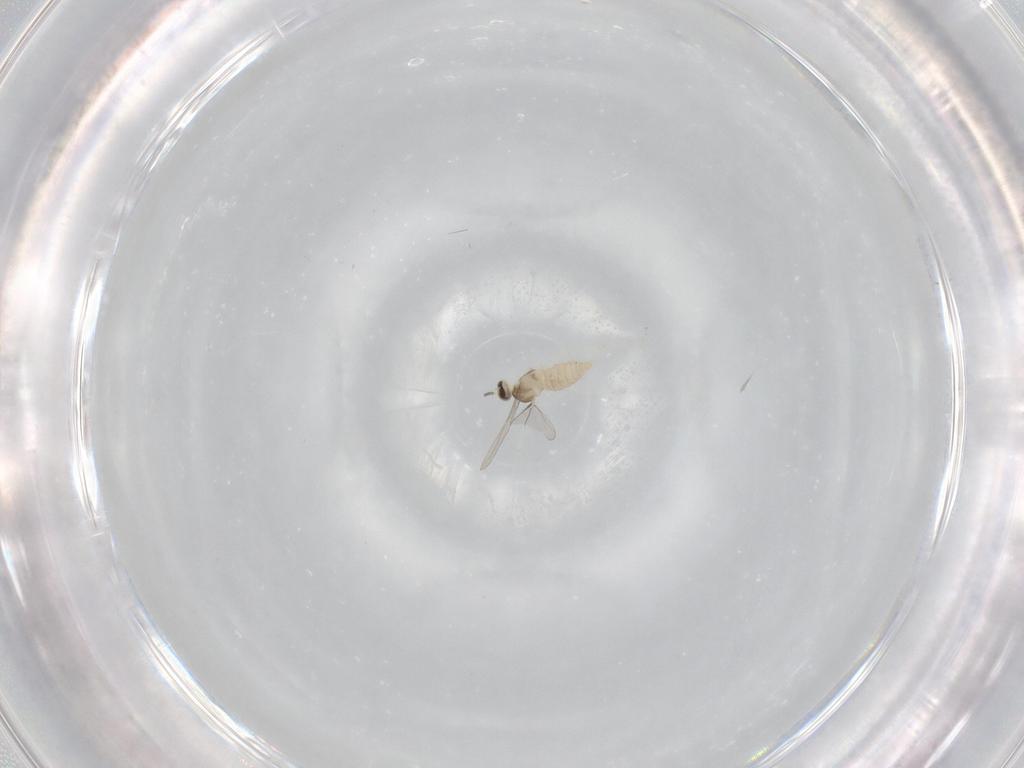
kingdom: Animalia
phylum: Arthropoda
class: Insecta
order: Diptera
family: Cecidomyiidae
